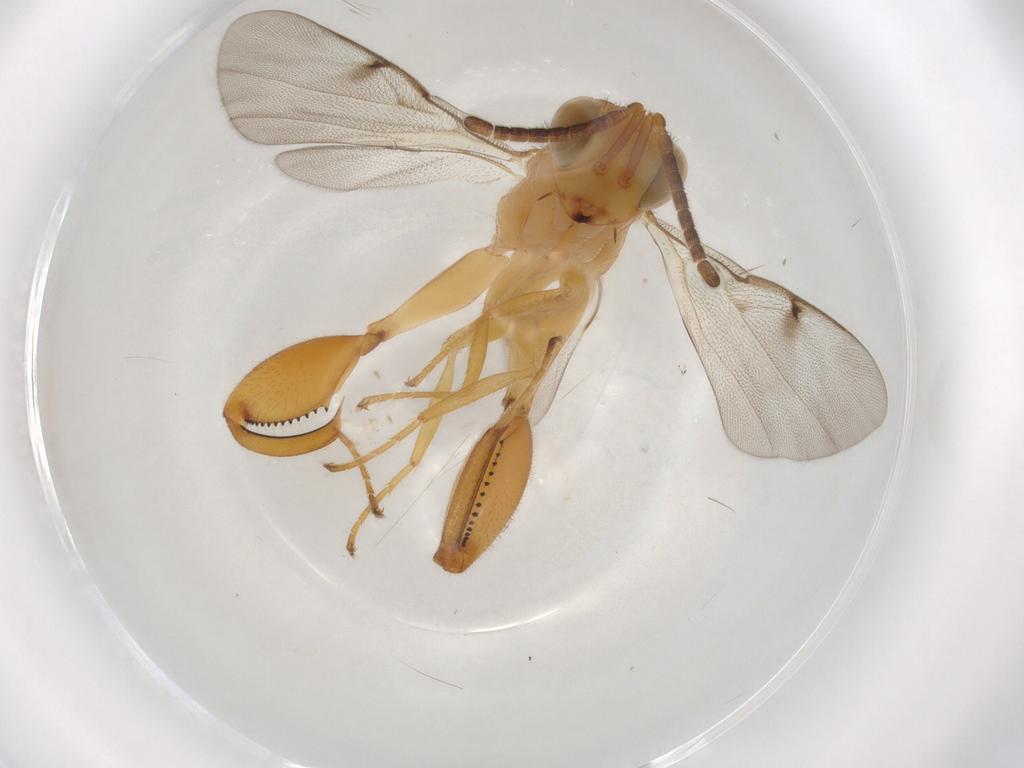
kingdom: Animalia
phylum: Arthropoda
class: Insecta
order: Hymenoptera
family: Chalcididae
